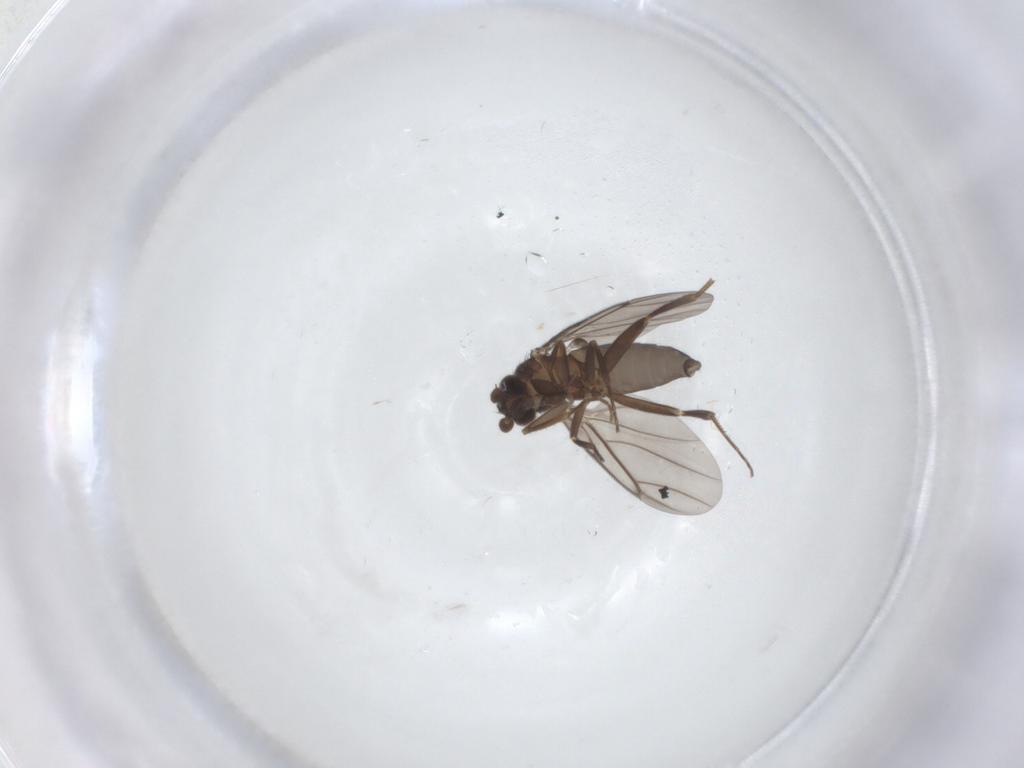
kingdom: Animalia
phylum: Arthropoda
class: Insecta
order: Diptera
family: Phoridae
